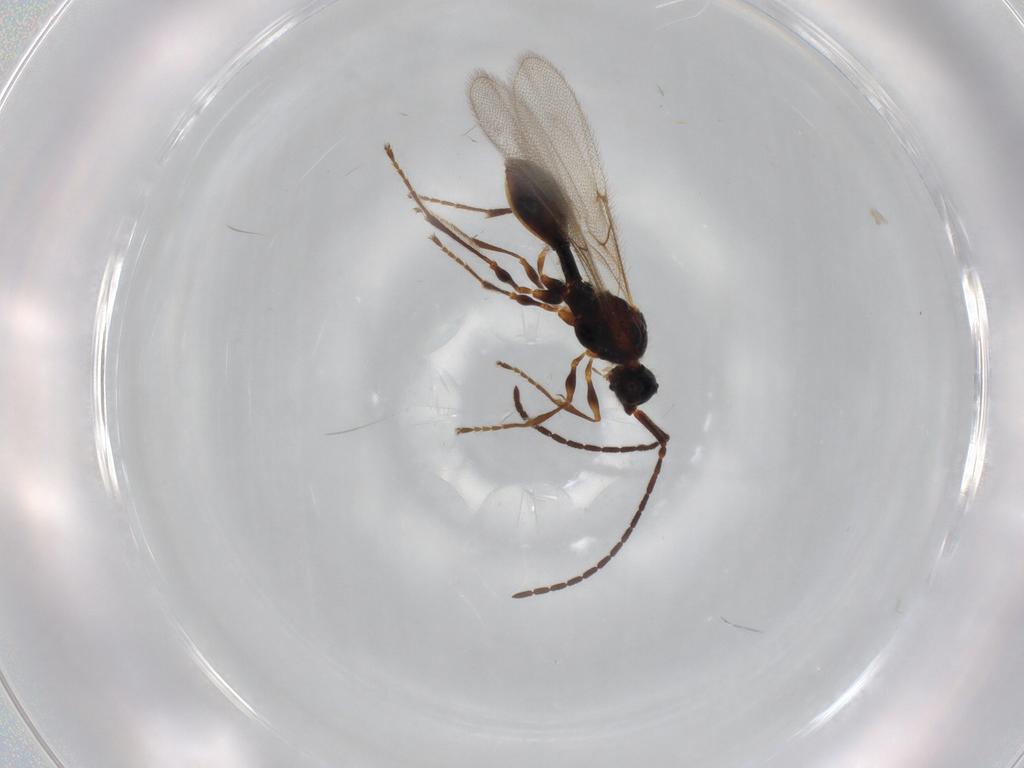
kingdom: Animalia
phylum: Arthropoda
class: Insecta
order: Hymenoptera
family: Diapriidae
